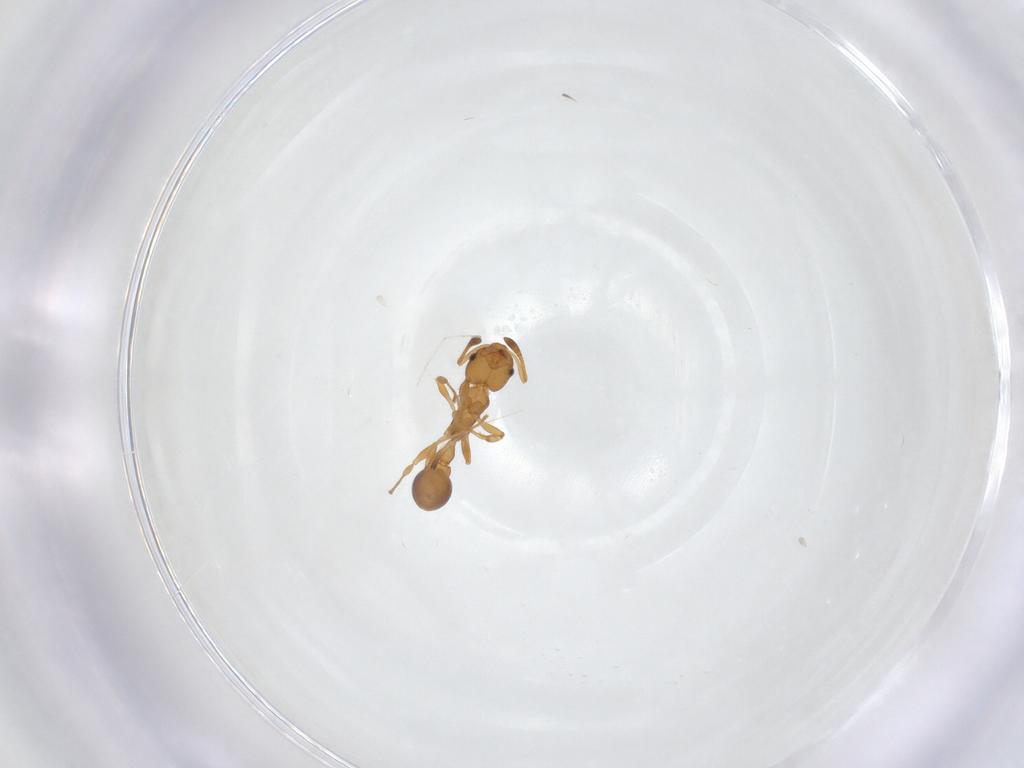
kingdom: Animalia
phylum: Arthropoda
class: Insecta
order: Hymenoptera
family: Formicidae
